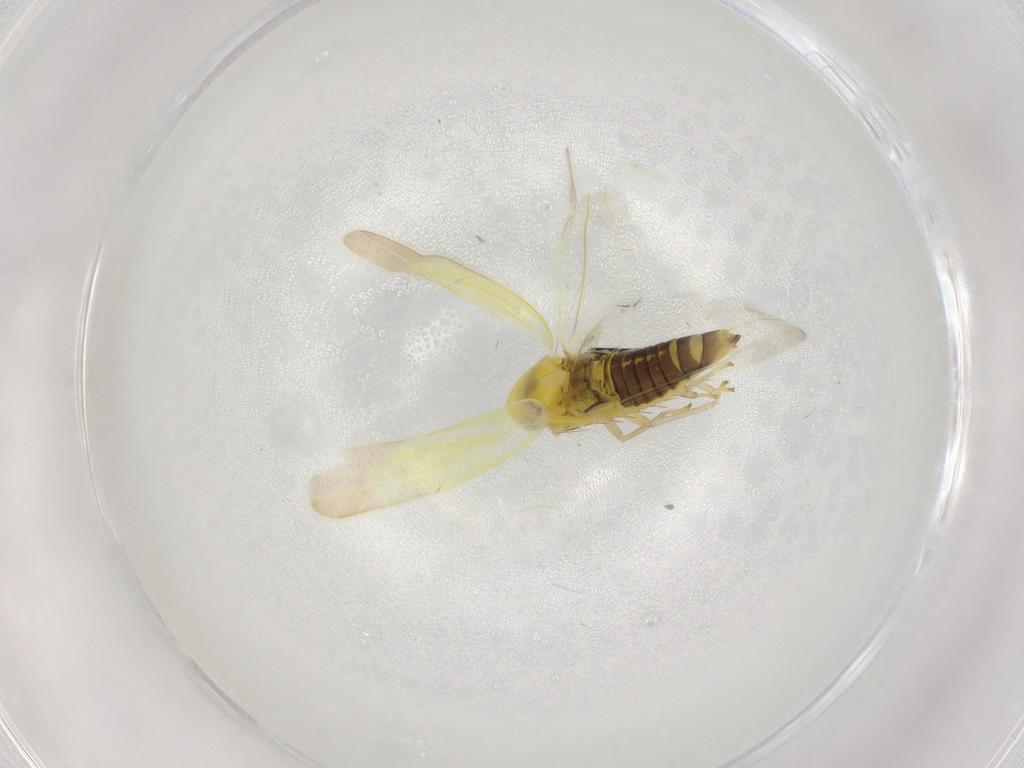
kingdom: Animalia
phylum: Arthropoda
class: Insecta
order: Hemiptera
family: Cicadellidae
